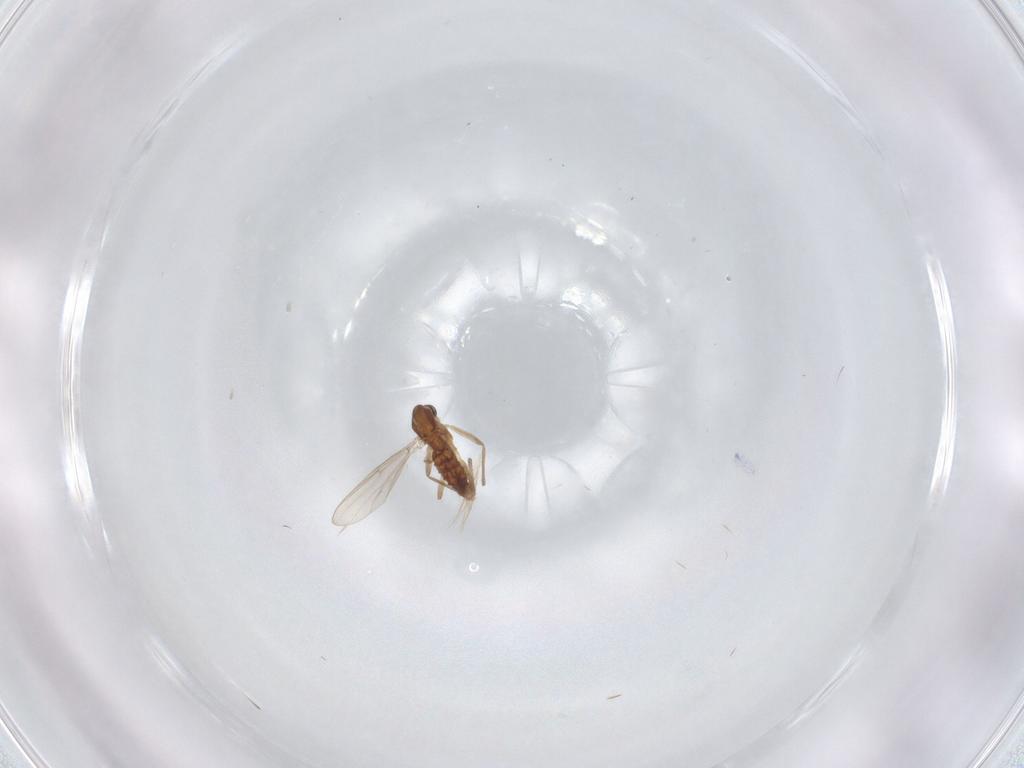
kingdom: Animalia
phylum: Arthropoda
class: Insecta
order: Diptera
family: Chironomidae
